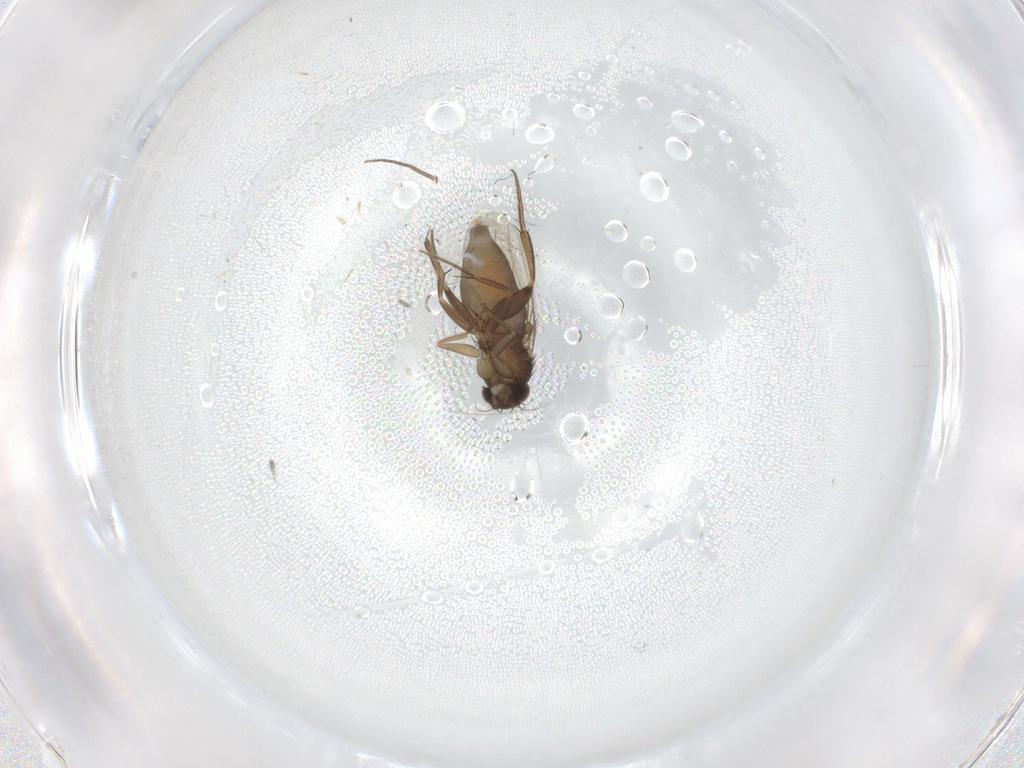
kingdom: Animalia
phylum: Arthropoda
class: Insecta
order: Diptera
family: Phoridae
